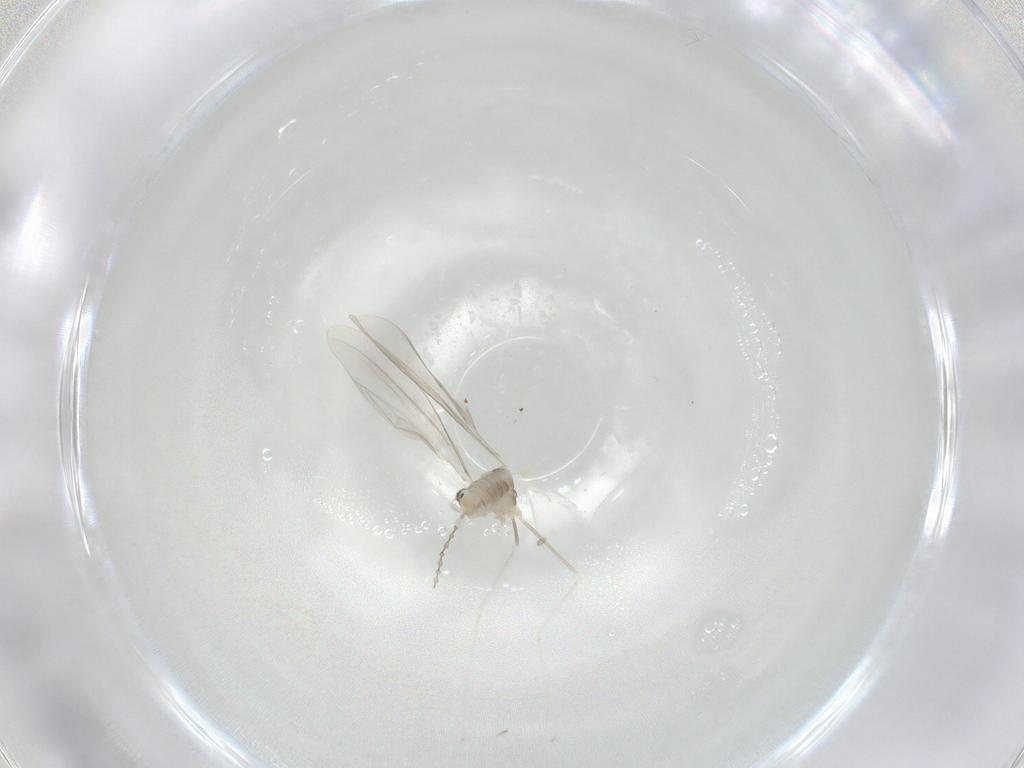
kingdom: Animalia
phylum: Arthropoda
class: Insecta
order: Diptera
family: Cecidomyiidae
